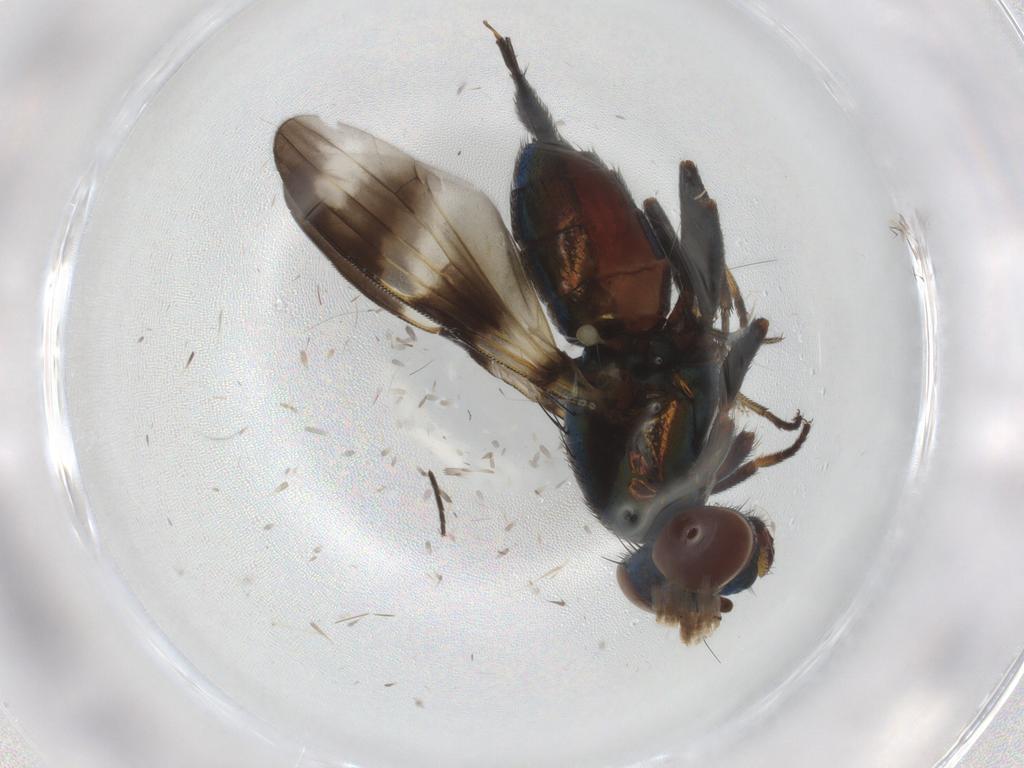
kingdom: Animalia
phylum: Arthropoda
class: Insecta
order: Diptera
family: Ulidiidae
